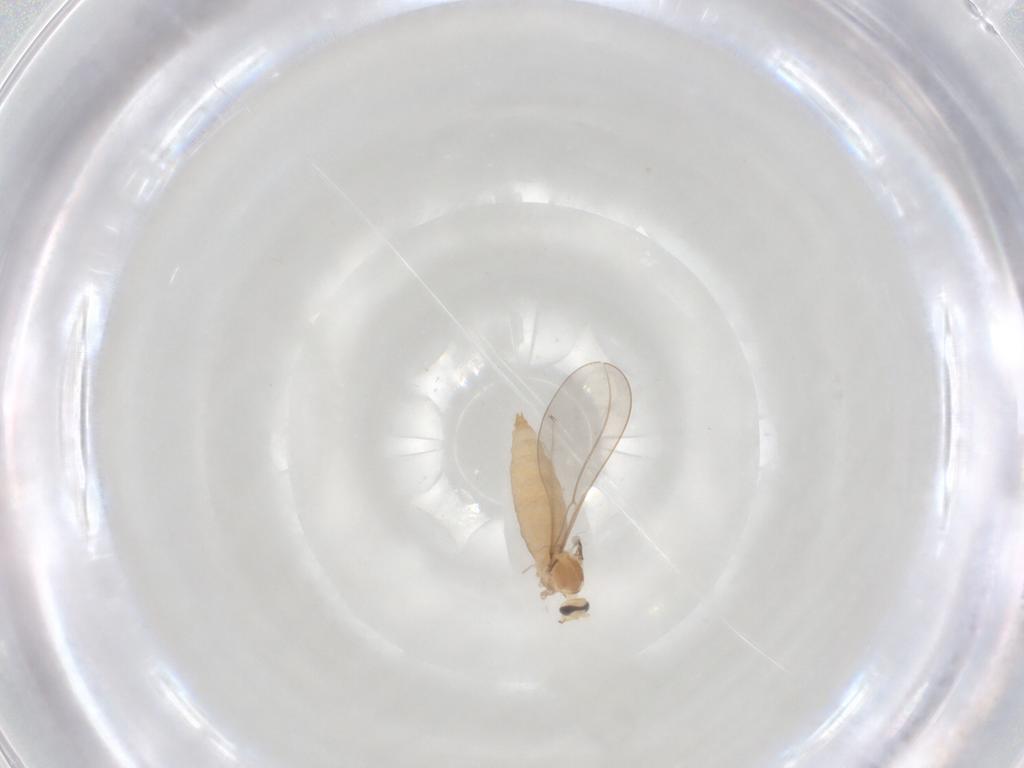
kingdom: Animalia
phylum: Arthropoda
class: Insecta
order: Diptera
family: Cecidomyiidae
